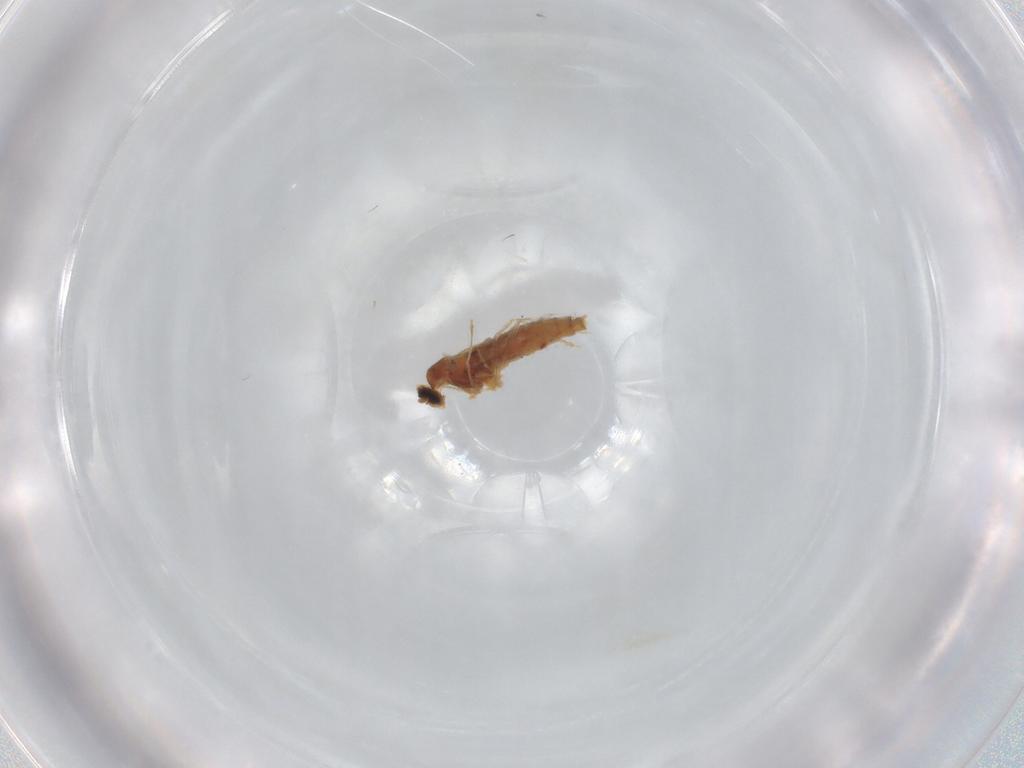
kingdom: Animalia
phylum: Arthropoda
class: Insecta
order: Diptera
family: Cecidomyiidae
